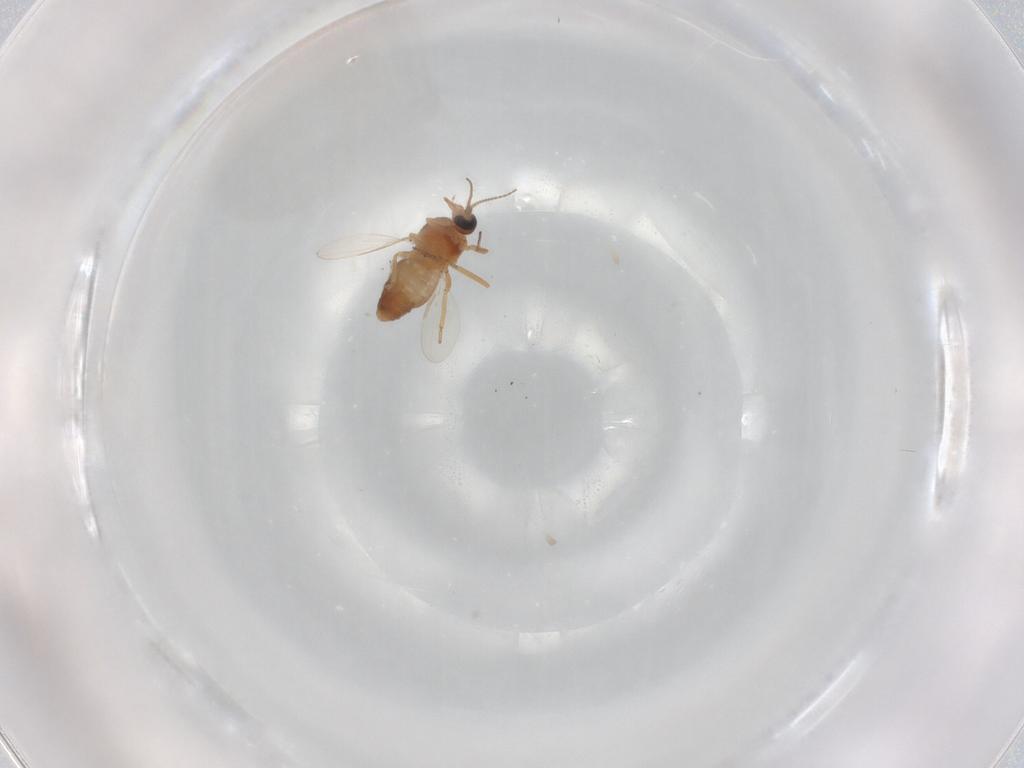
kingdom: Animalia
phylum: Arthropoda
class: Insecta
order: Diptera
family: Ceratopogonidae
